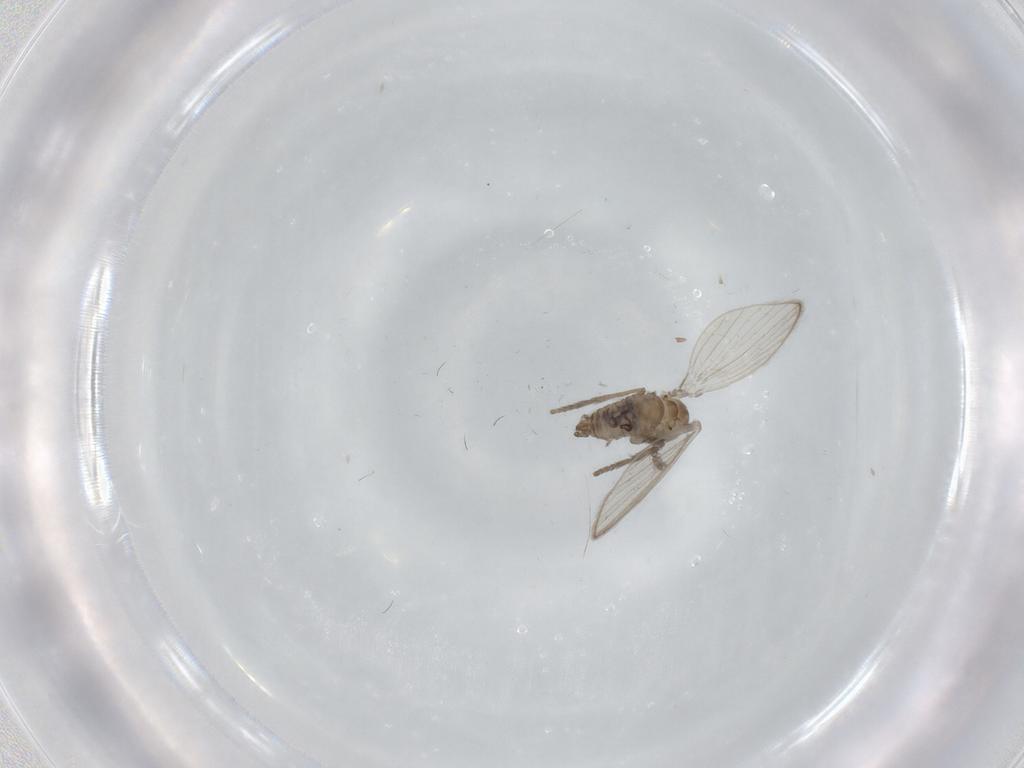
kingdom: Animalia
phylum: Arthropoda
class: Insecta
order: Diptera
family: Psychodidae
